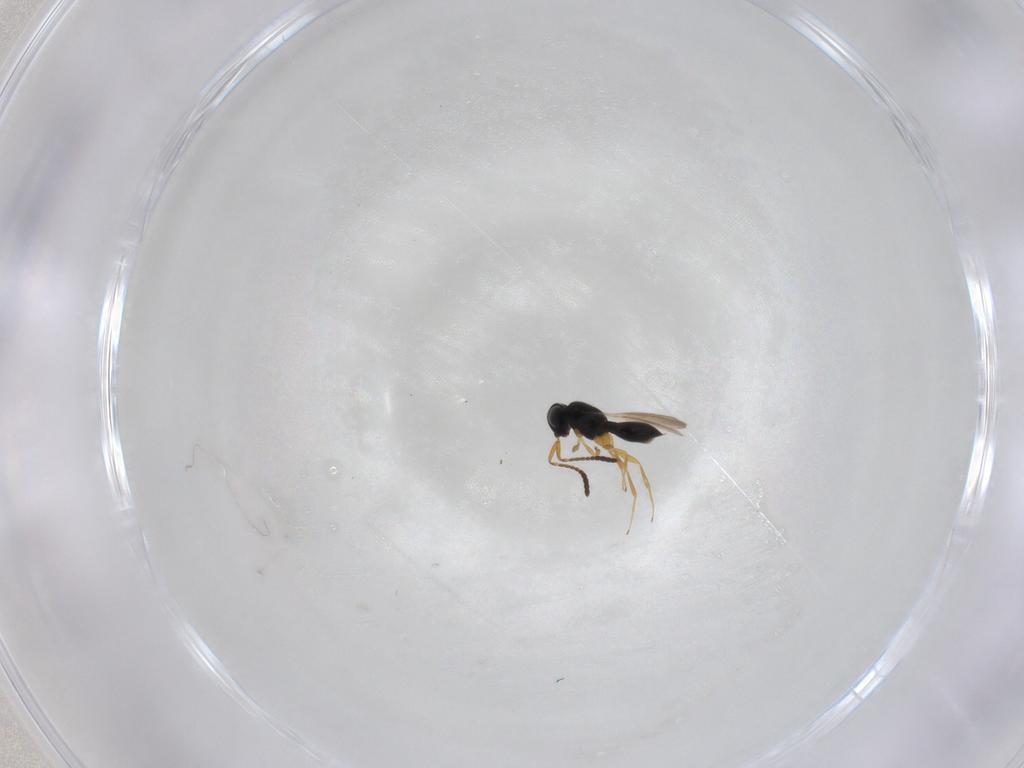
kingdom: Animalia
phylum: Arthropoda
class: Insecta
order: Hymenoptera
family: Scelionidae
